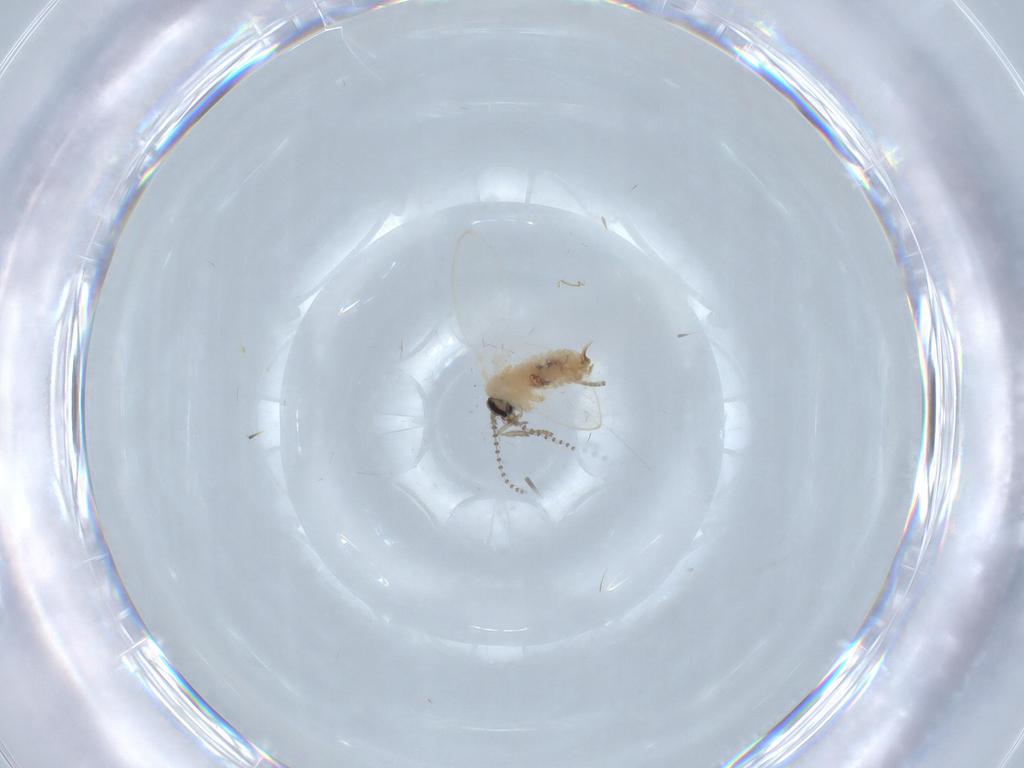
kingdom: Animalia
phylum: Arthropoda
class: Insecta
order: Diptera
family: Psychodidae
